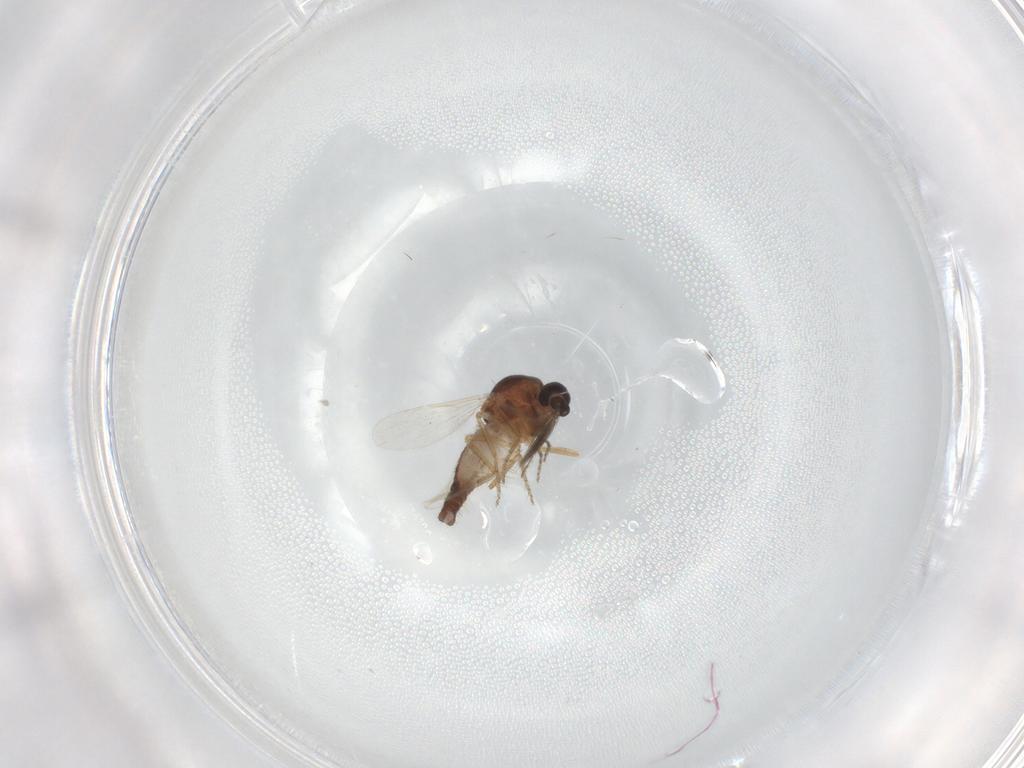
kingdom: Animalia
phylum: Arthropoda
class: Insecta
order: Diptera
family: Ceratopogonidae
